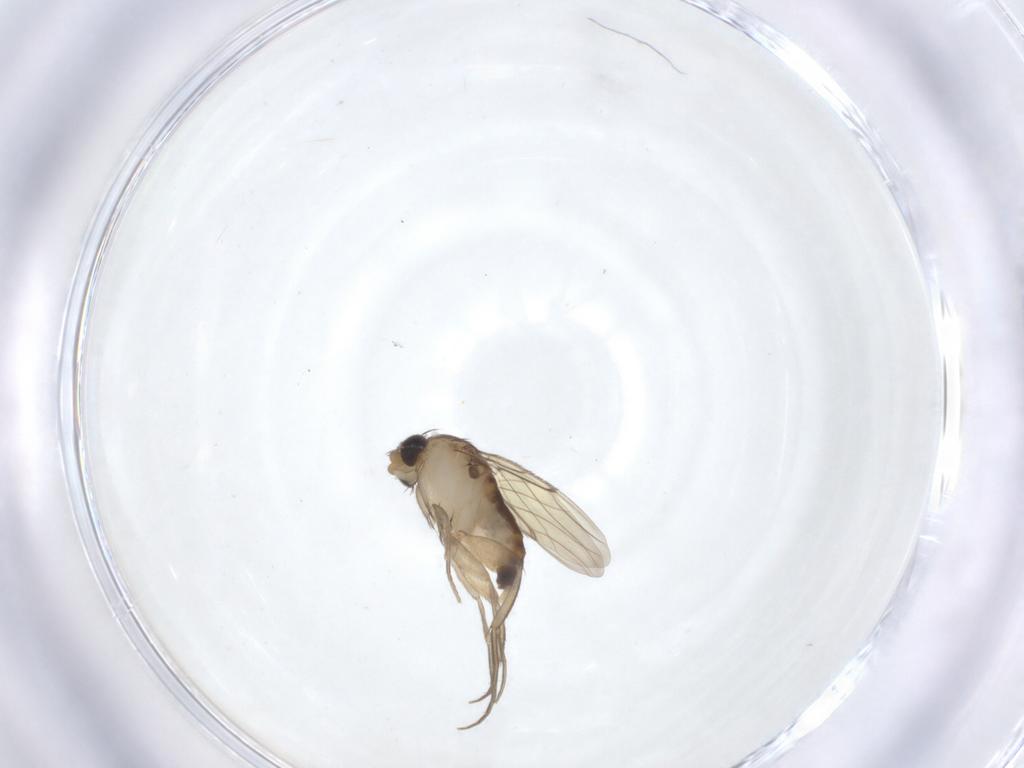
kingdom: Animalia
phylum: Arthropoda
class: Insecta
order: Diptera
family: Phoridae
